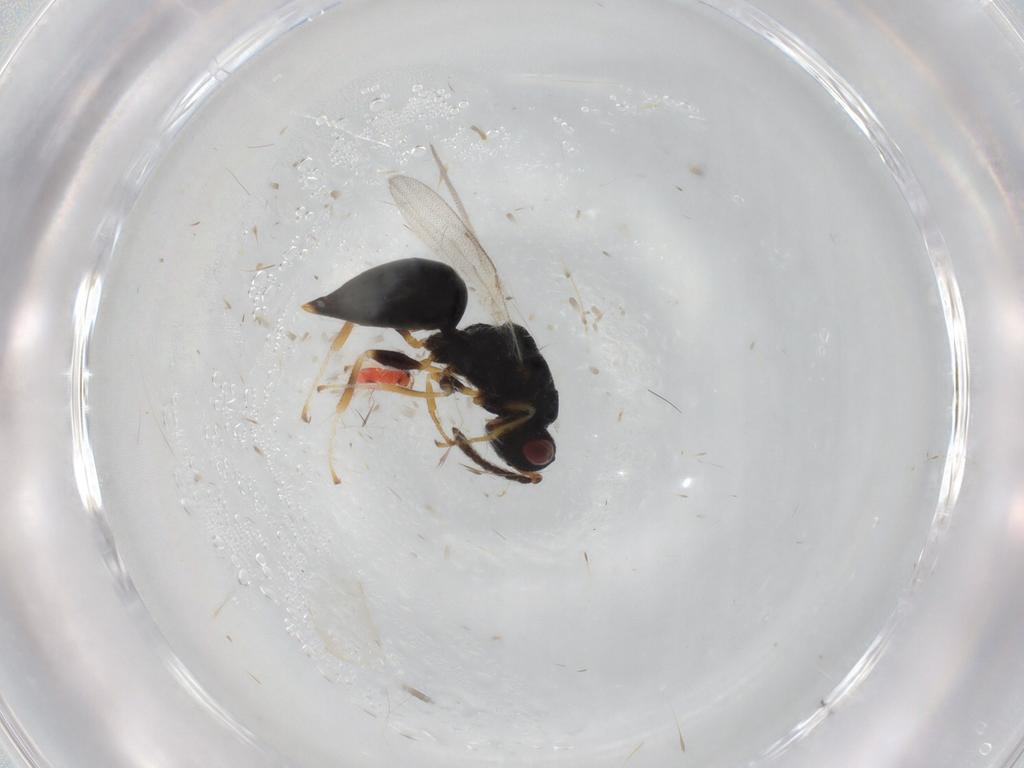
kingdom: Animalia
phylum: Arthropoda
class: Insecta
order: Hymenoptera
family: Eurytomidae
